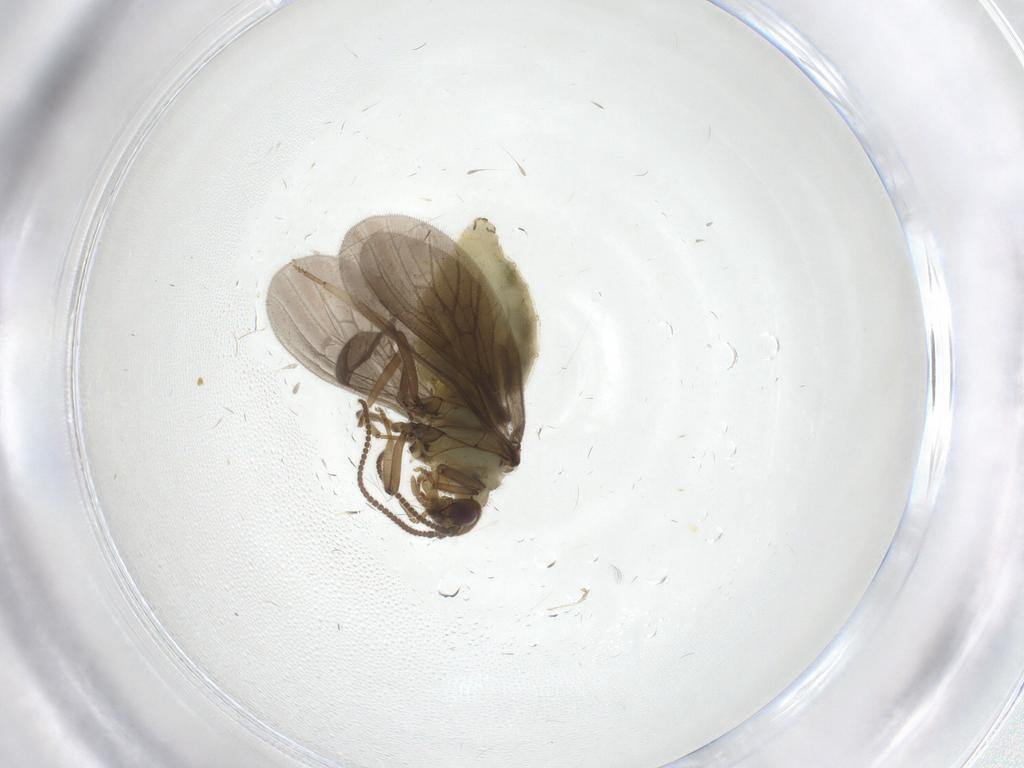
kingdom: Animalia
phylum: Arthropoda
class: Insecta
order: Neuroptera
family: Coniopterygidae
